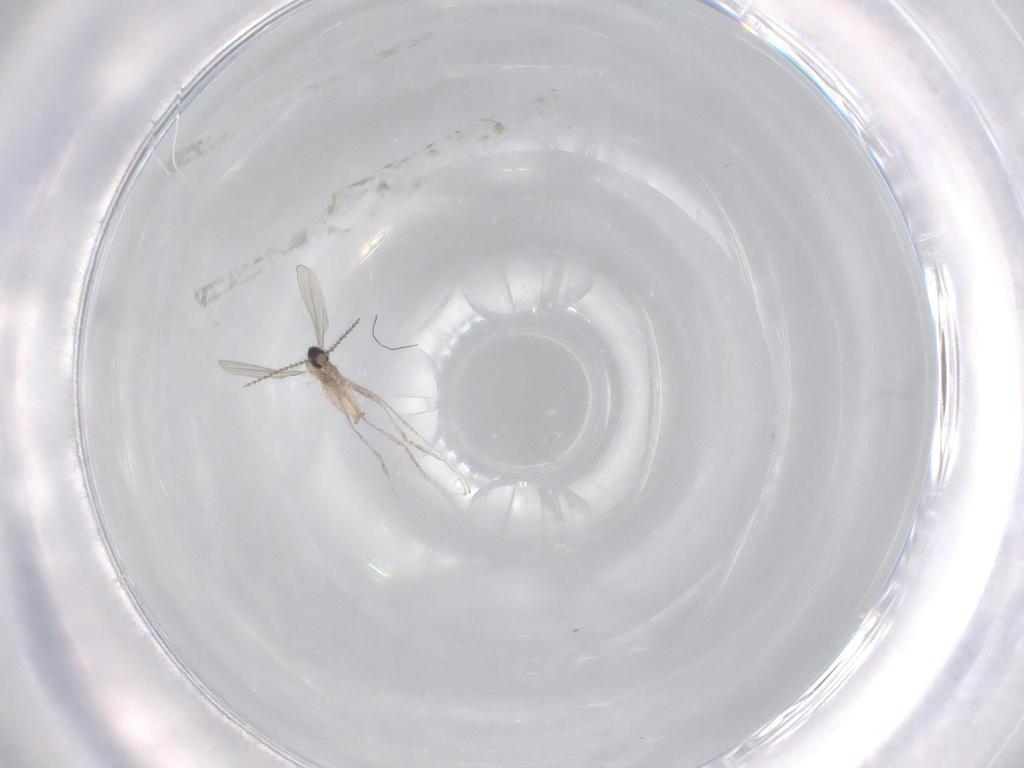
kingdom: Animalia
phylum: Arthropoda
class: Insecta
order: Diptera
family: Cecidomyiidae
